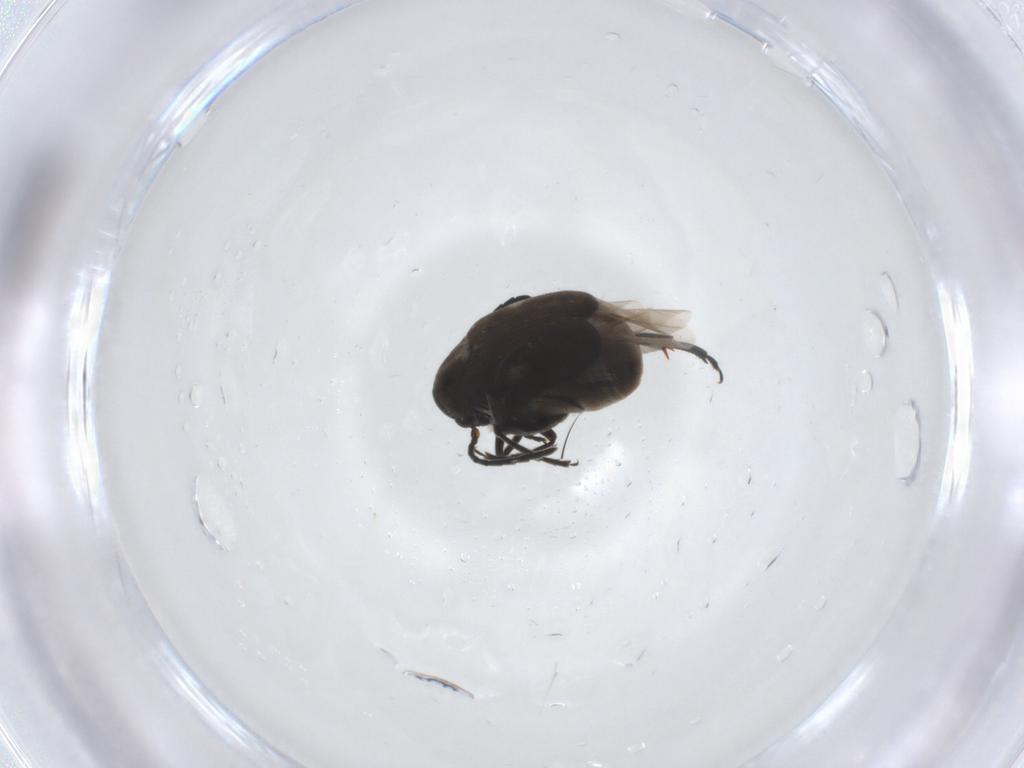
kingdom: Animalia
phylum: Arthropoda
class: Insecta
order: Coleoptera
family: Chrysomelidae
